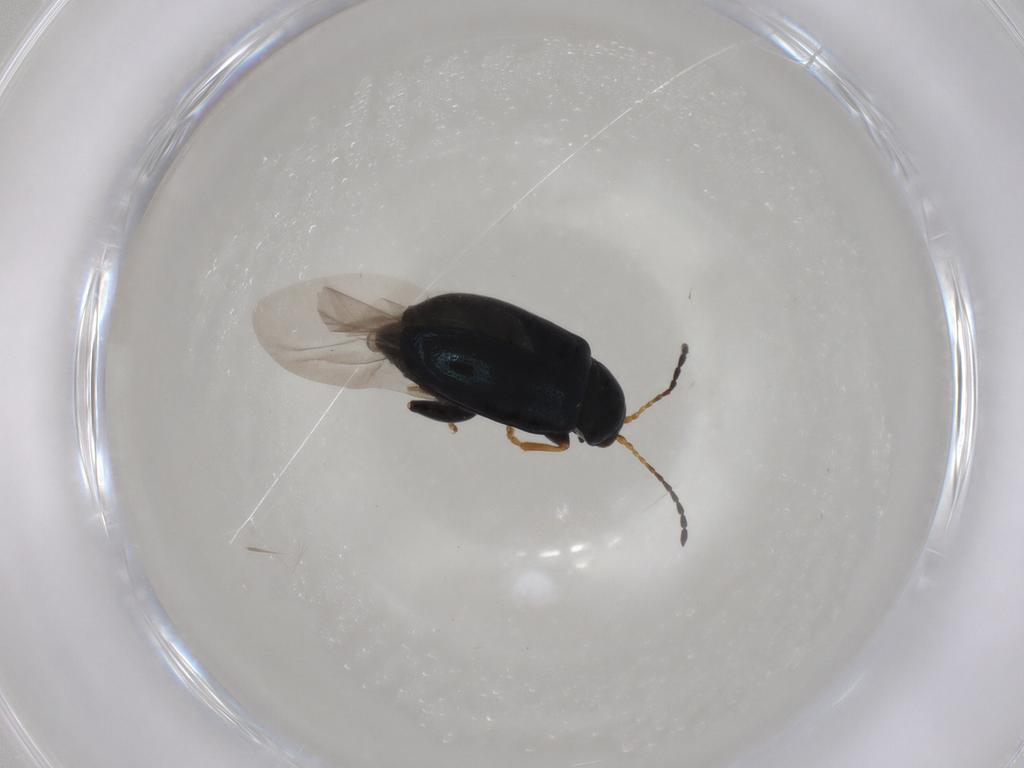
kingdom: Animalia
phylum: Arthropoda
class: Insecta
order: Coleoptera
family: Chrysomelidae
